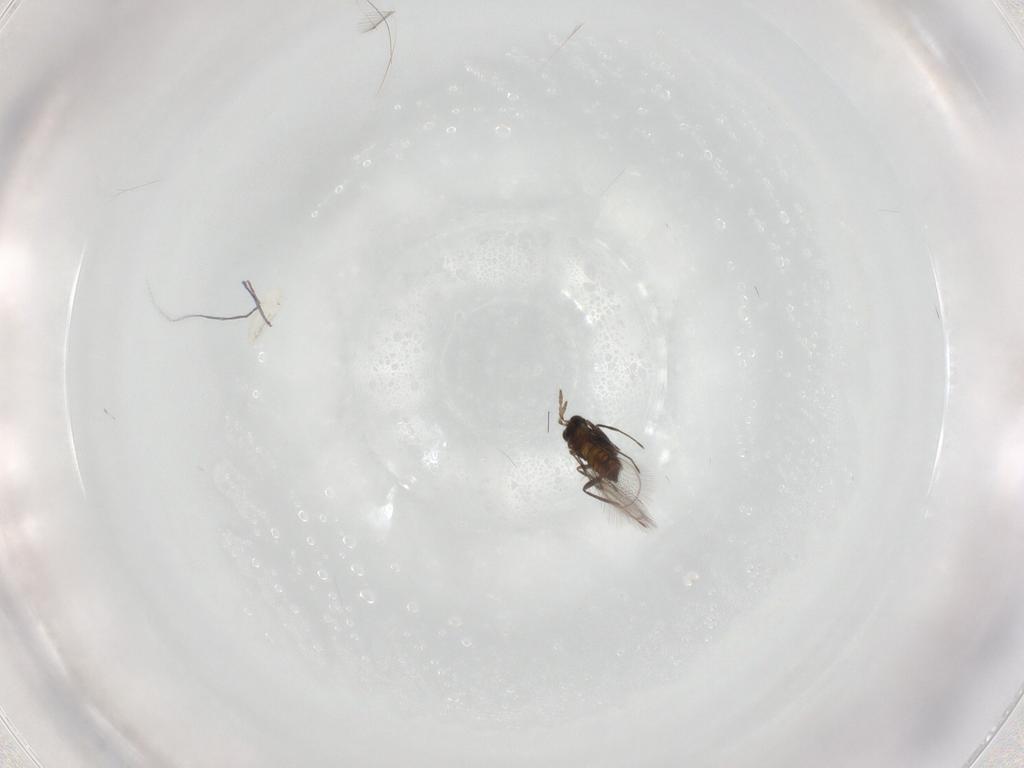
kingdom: Animalia
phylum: Arthropoda
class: Insecta
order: Hymenoptera
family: Trichogrammatidae
